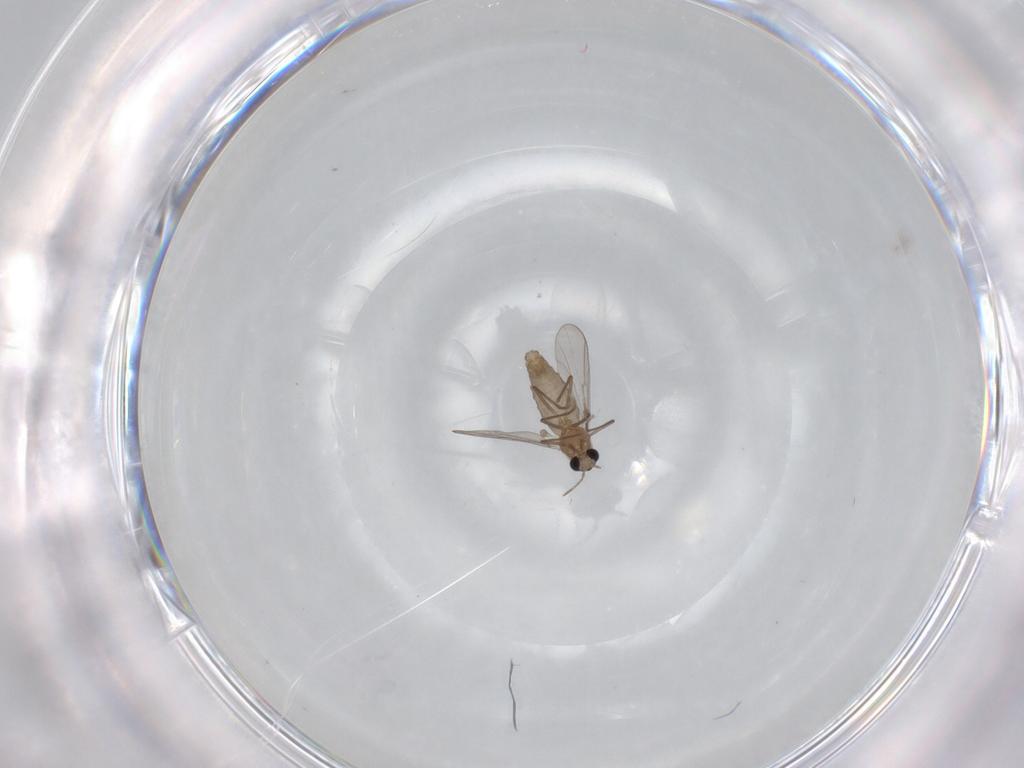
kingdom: Animalia
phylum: Arthropoda
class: Insecta
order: Diptera
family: Chironomidae
